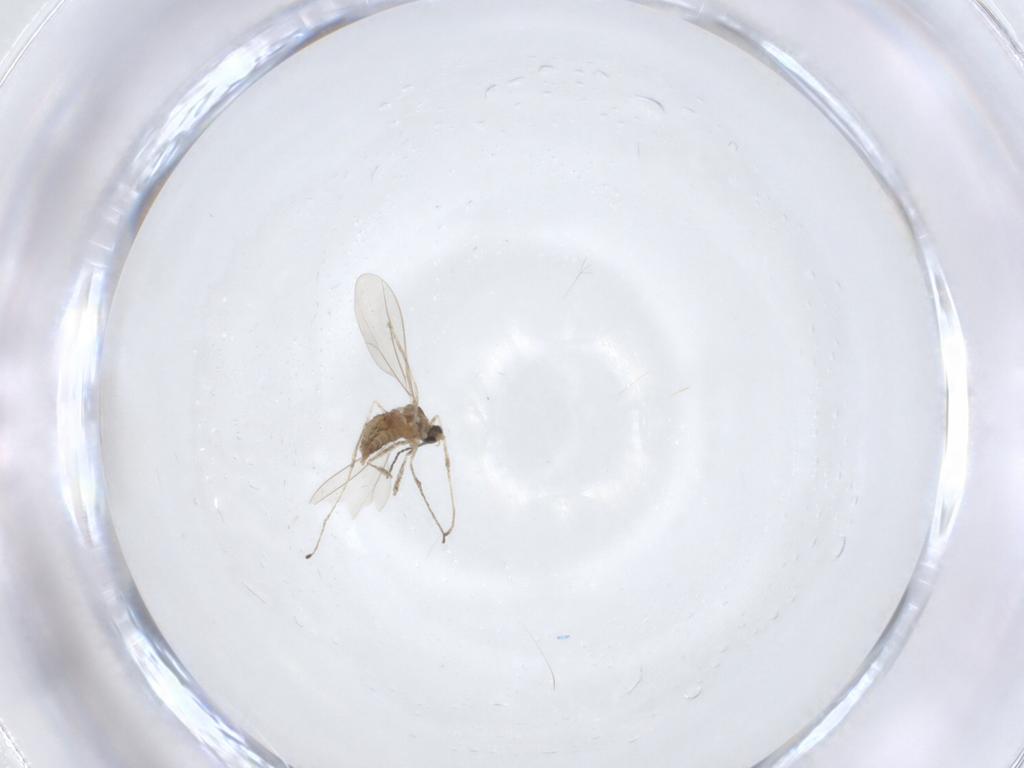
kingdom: Animalia
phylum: Arthropoda
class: Insecta
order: Diptera
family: Cecidomyiidae
